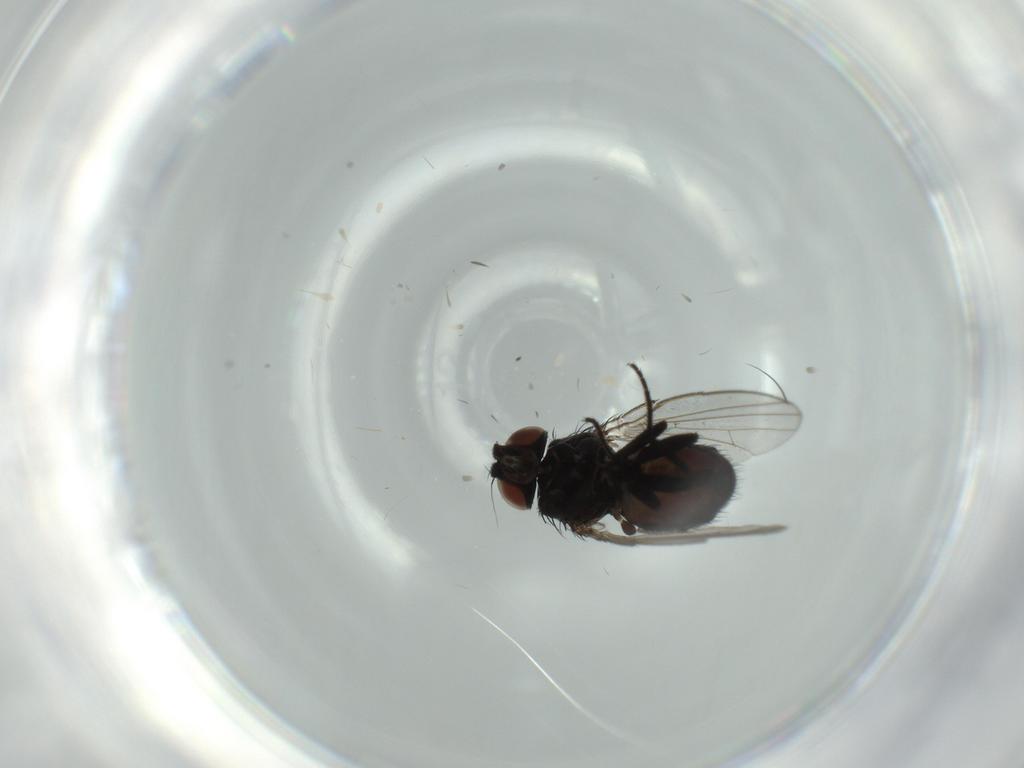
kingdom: Animalia
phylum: Arthropoda
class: Insecta
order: Diptera
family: Milichiidae
